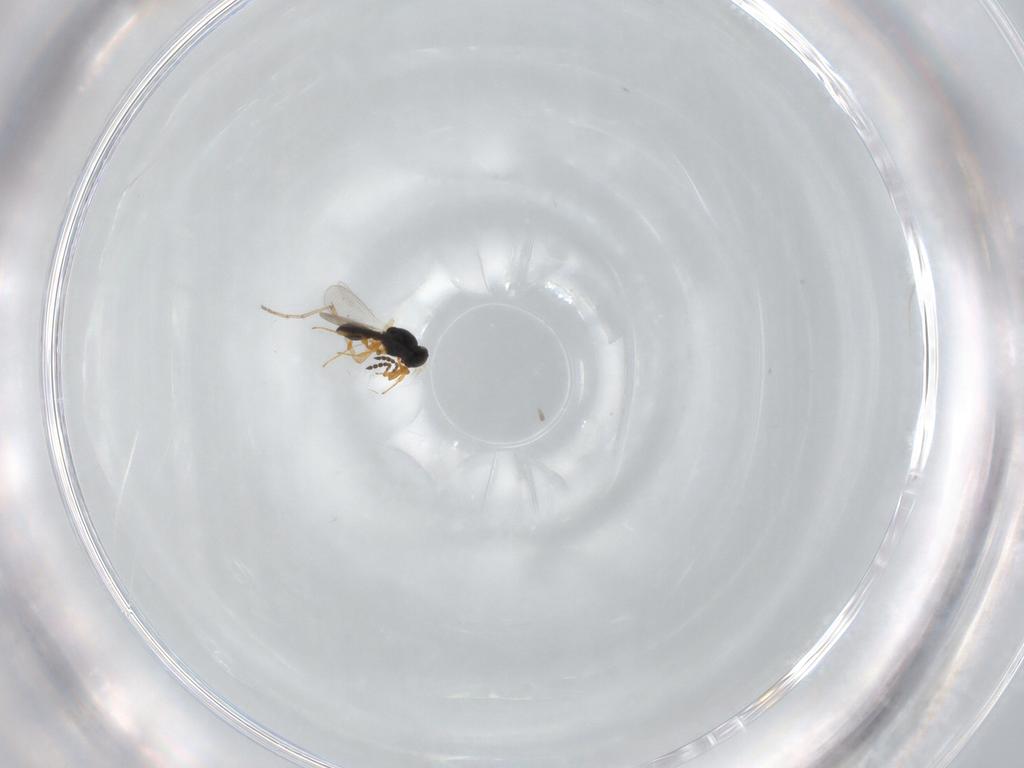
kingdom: Animalia
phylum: Arthropoda
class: Insecta
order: Hymenoptera
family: Platygastridae
